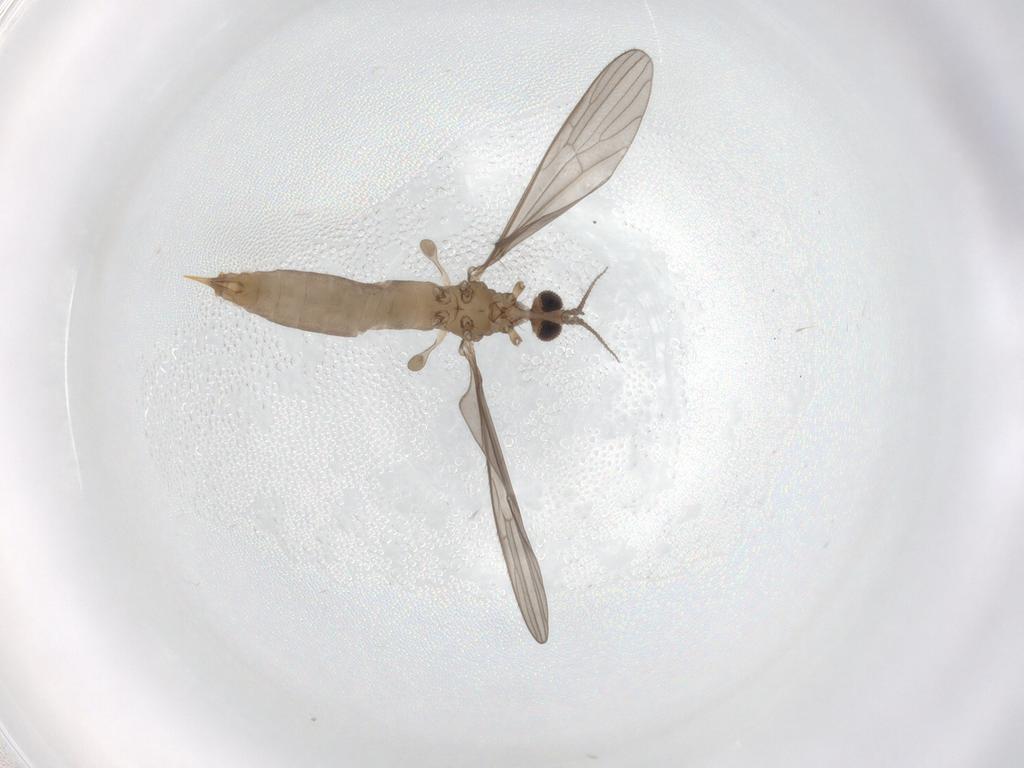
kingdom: Animalia
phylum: Arthropoda
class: Insecta
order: Diptera
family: Limoniidae
